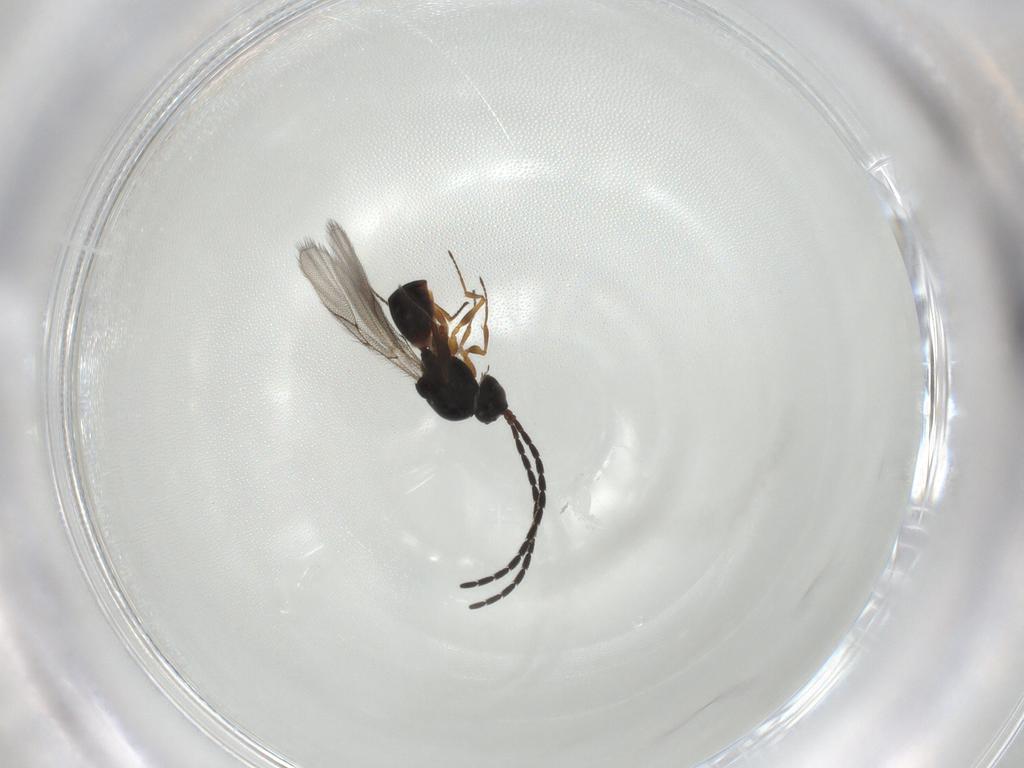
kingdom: Animalia
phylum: Arthropoda
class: Insecta
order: Hymenoptera
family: Figitidae
